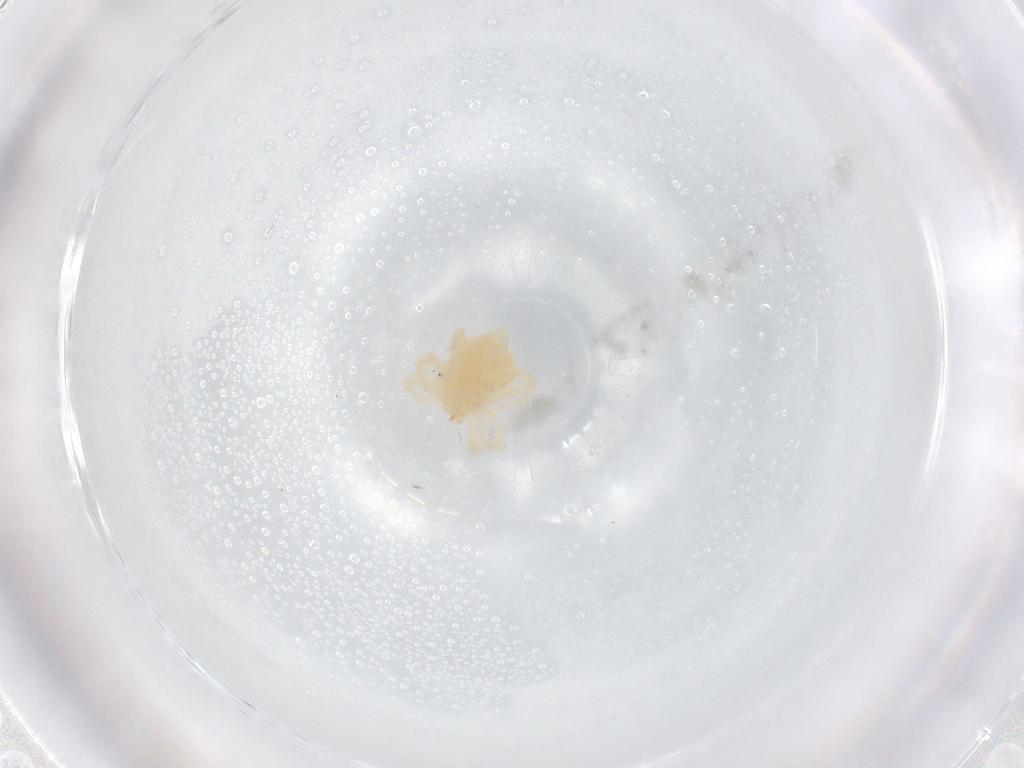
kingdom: Animalia
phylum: Arthropoda
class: Arachnida
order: Trombidiformes
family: Anystidae
